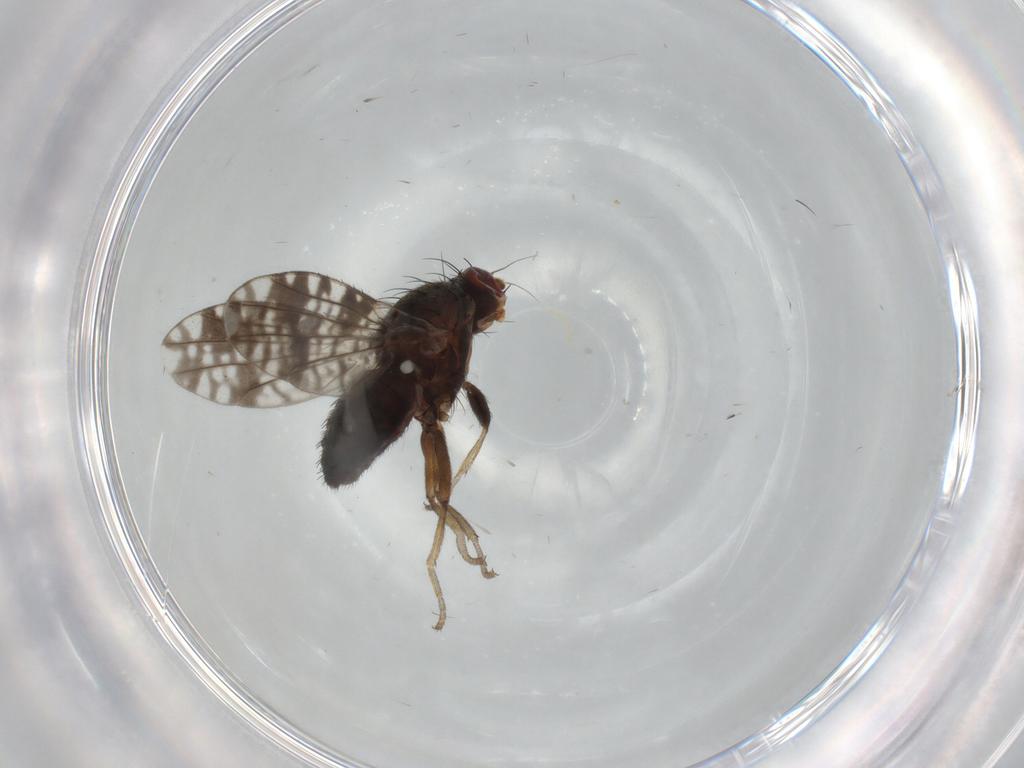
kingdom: Animalia
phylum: Arthropoda
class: Insecta
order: Diptera
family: Tephritidae
